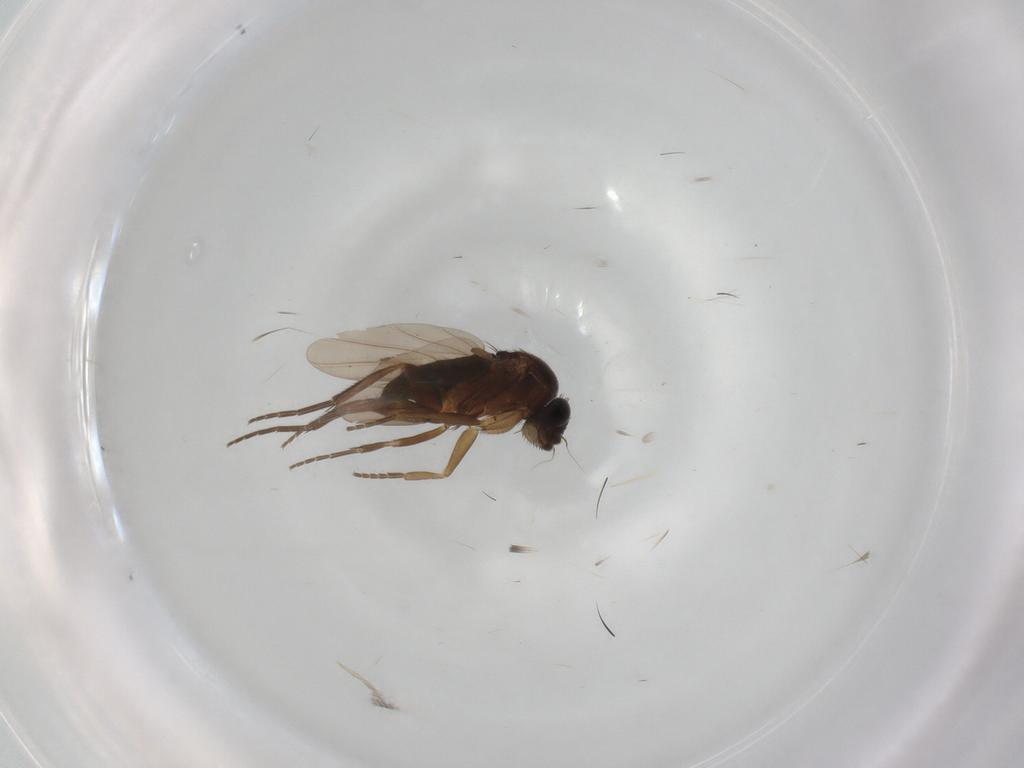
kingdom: Animalia
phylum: Arthropoda
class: Insecta
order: Diptera
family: Phoridae
